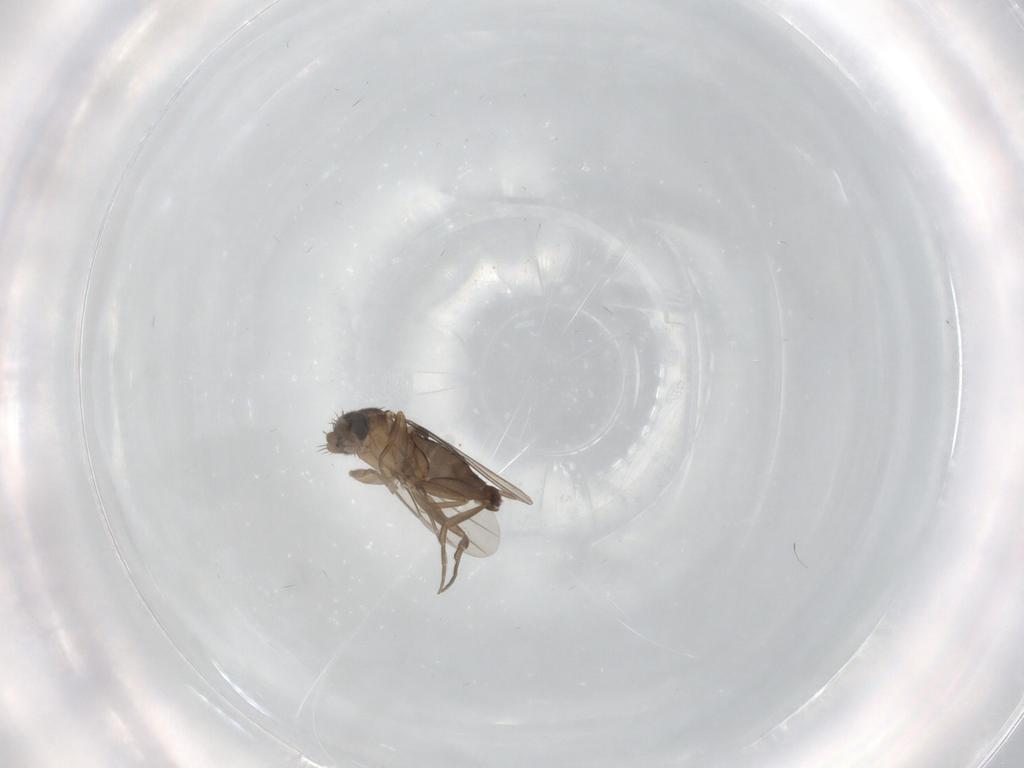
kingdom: Animalia
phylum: Arthropoda
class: Insecta
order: Diptera
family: Phoridae
